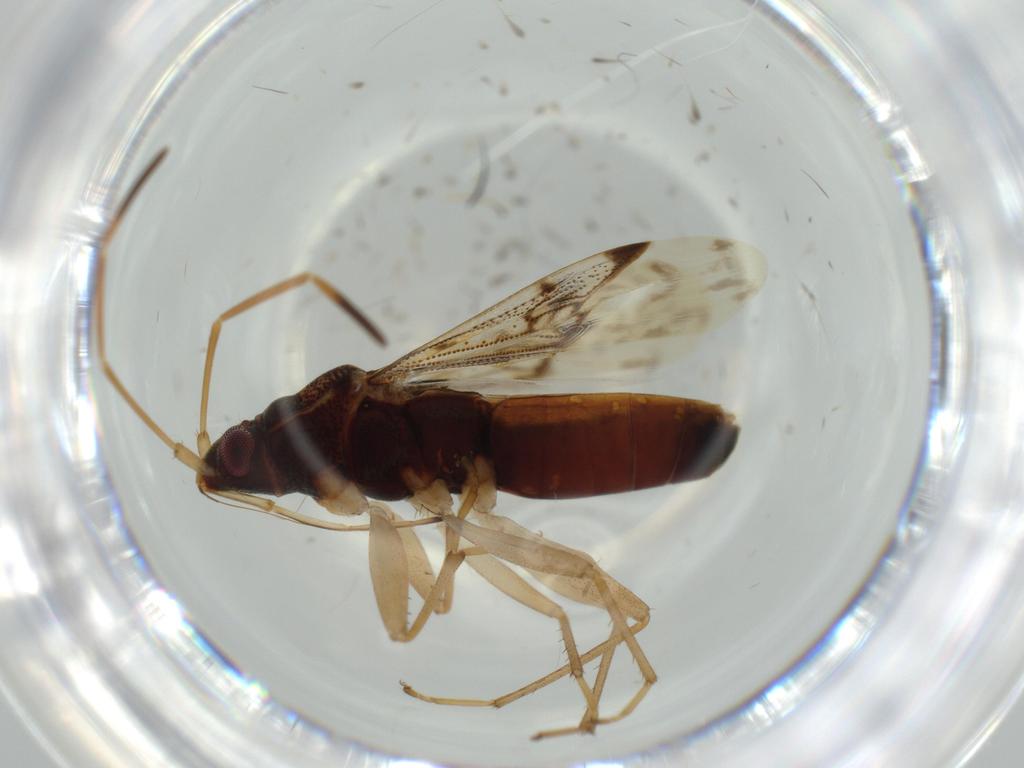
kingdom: Animalia
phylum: Arthropoda
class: Insecta
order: Hemiptera
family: Rhyparochromidae
